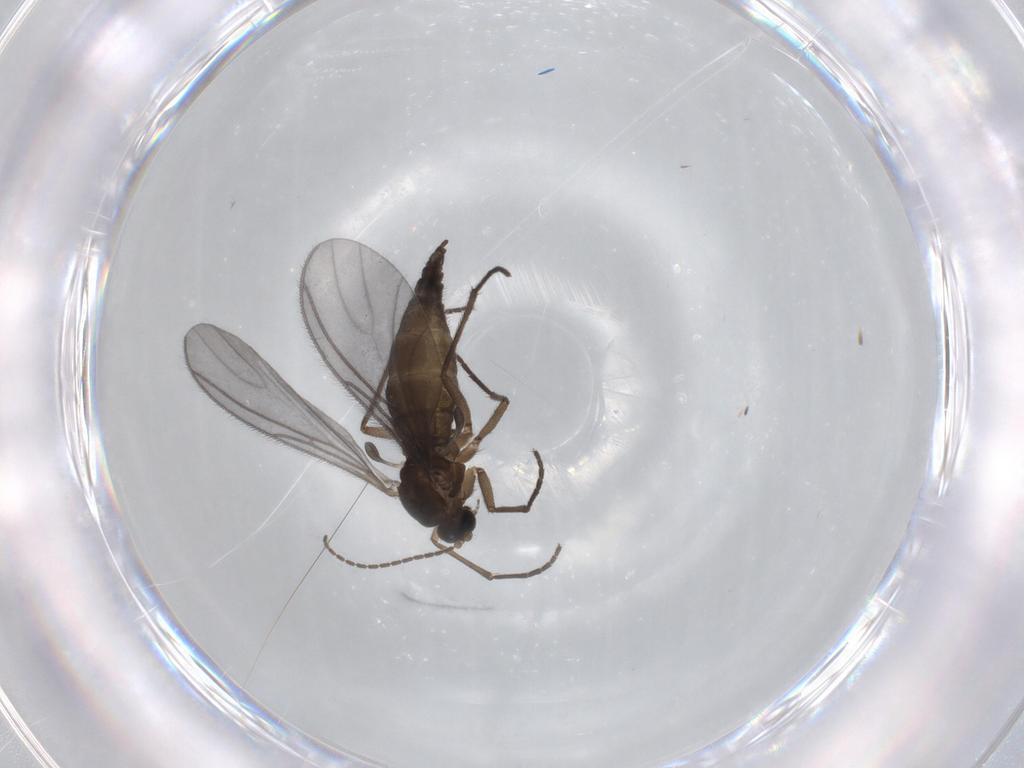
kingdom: Animalia
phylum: Arthropoda
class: Insecta
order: Diptera
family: Sciaridae
